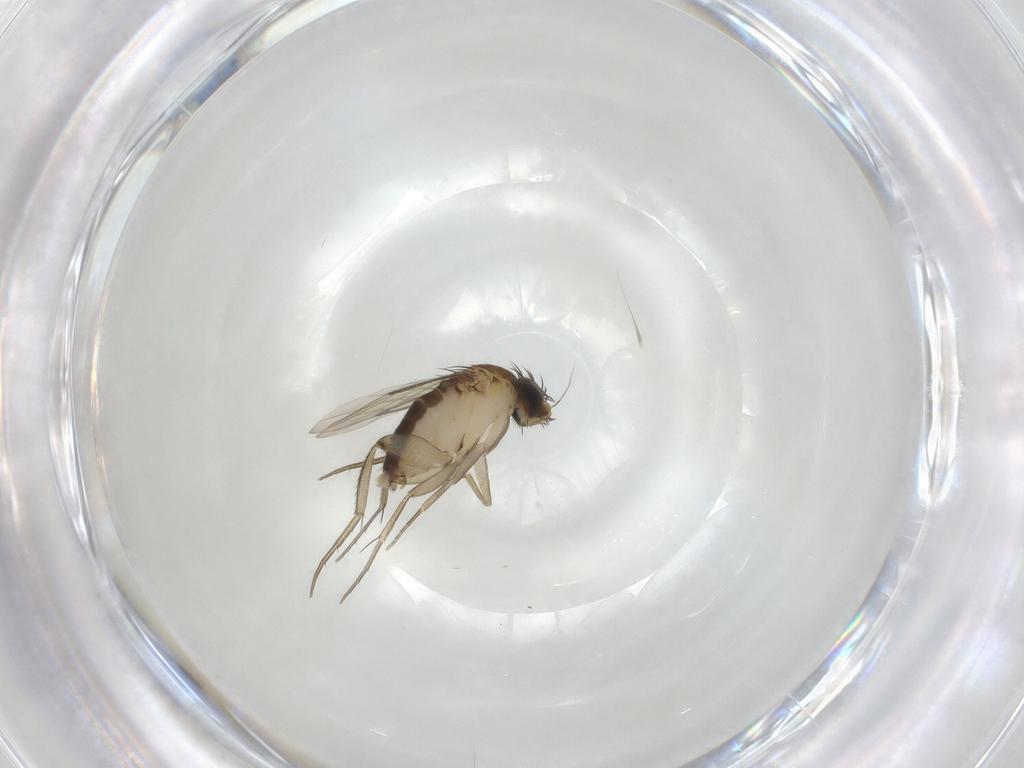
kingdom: Animalia
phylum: Arthropoda
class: Insecta
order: Diptera
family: Phoridae
